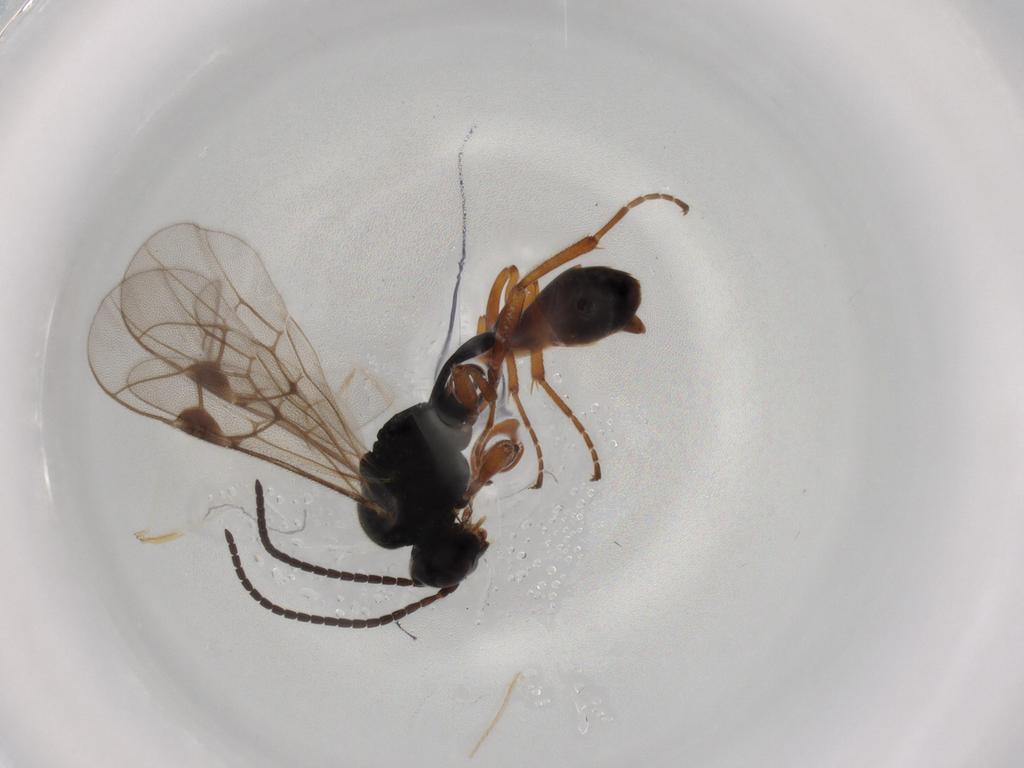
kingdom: Animalia
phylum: Arthropoda
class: Insecta
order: Hymenoptera
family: Ichneumonidae
